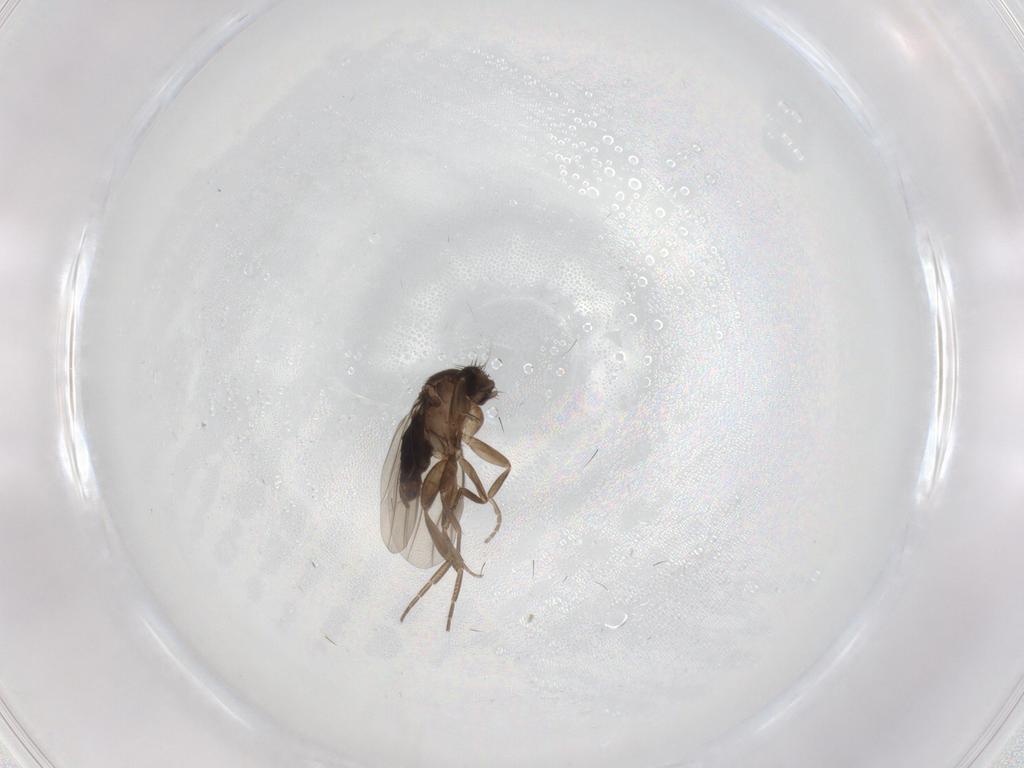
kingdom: Animalia
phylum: Arthropoda
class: Insecta
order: Diptera
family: Phoridae
